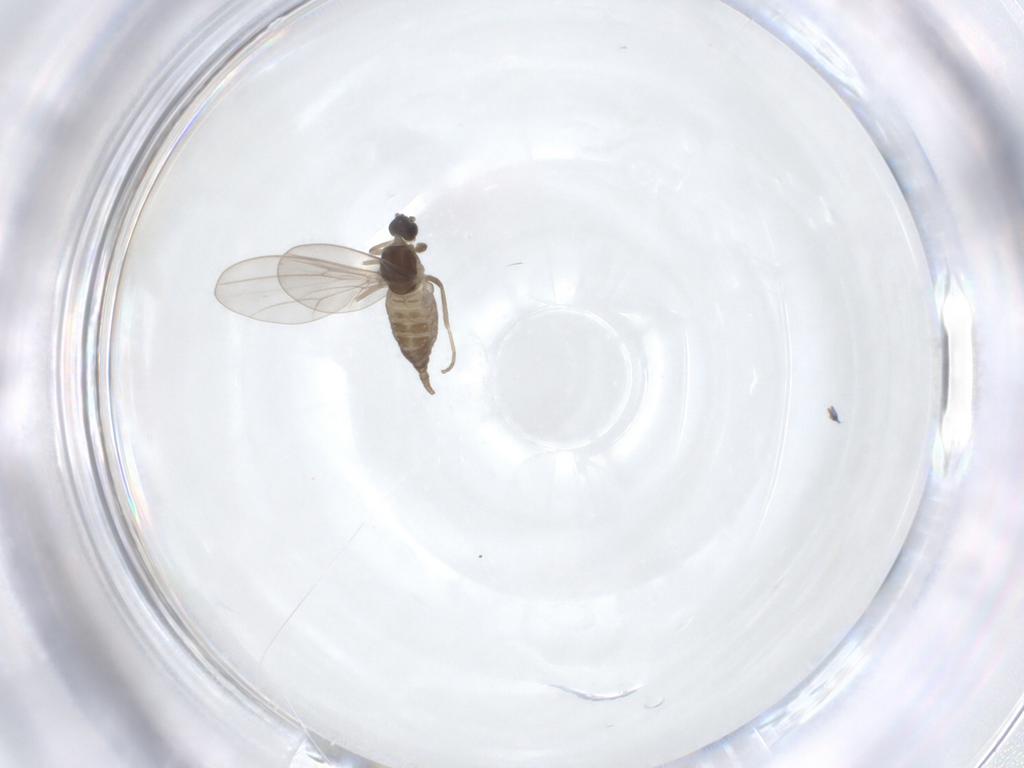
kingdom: Animalia
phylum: Arthropoda
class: Insecta
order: Diptera
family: Cecidomyiidae
